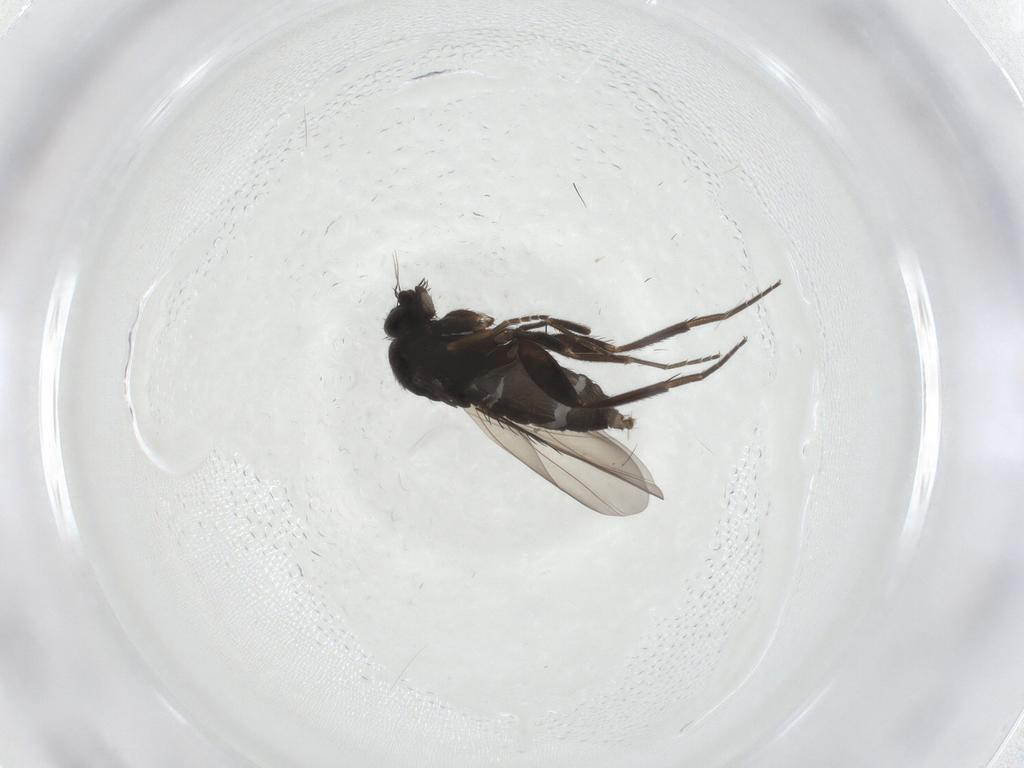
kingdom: Animalia
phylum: Arthropoda
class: Insecta
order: Diptera
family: Phoridae
